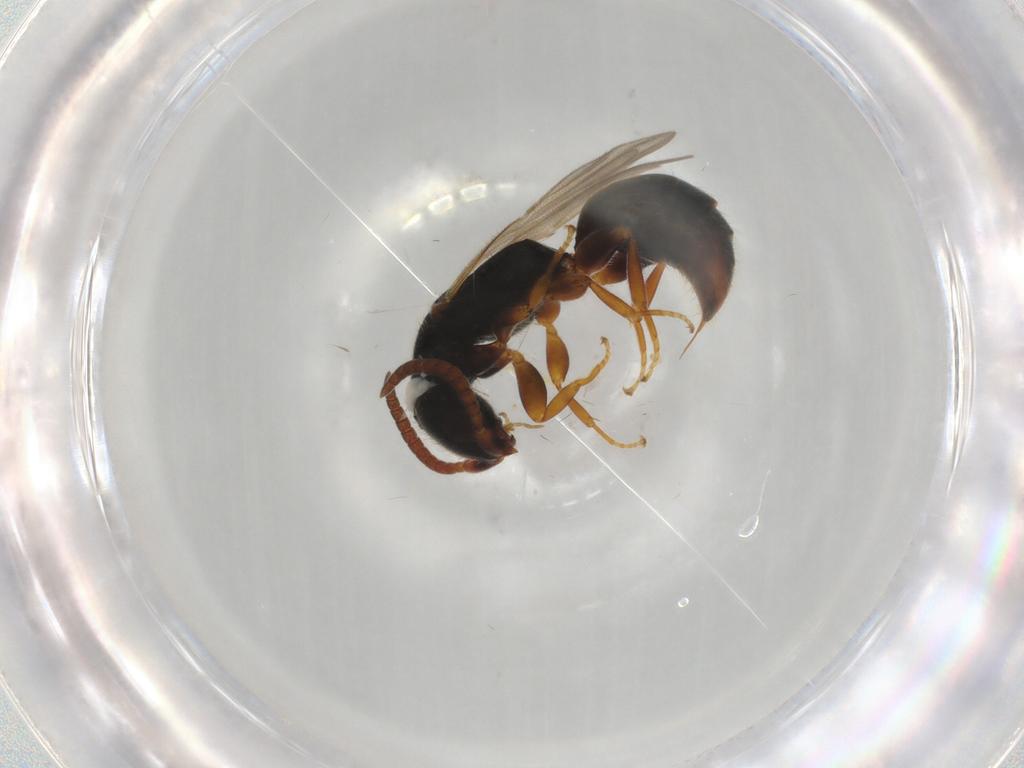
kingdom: Animalia
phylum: Arthropoda
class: Insecta
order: Hymenoptera
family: Bethylidae
